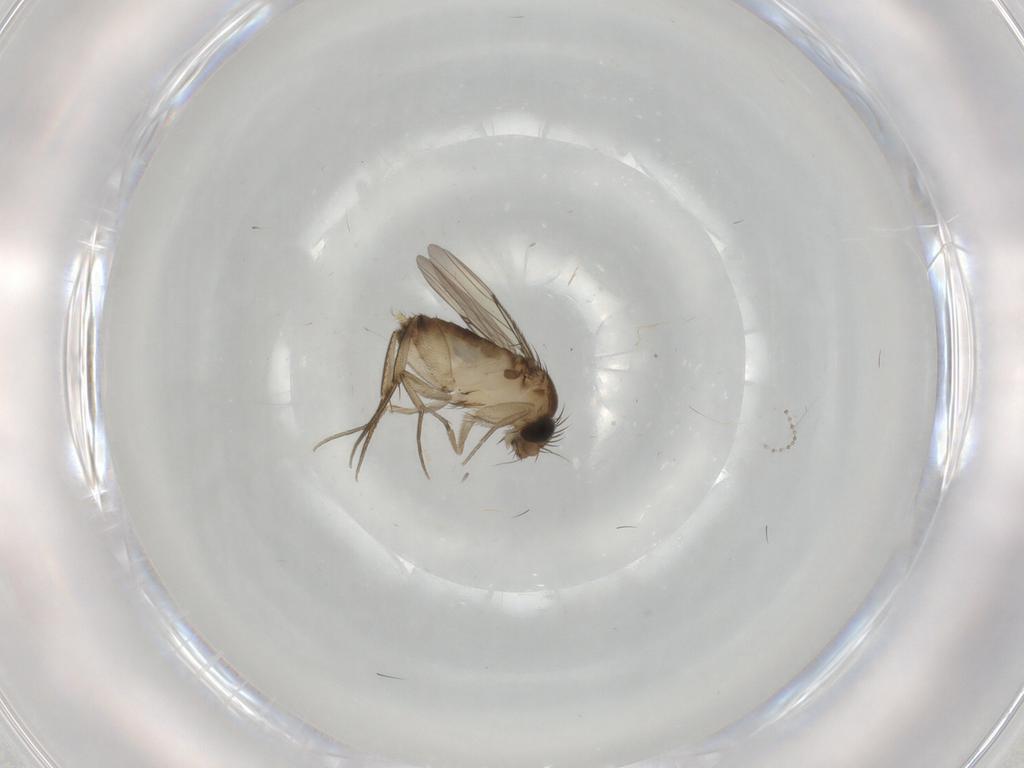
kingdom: Animalia
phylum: Arthropoda
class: Insecta
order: Diptera
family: Phoridae
